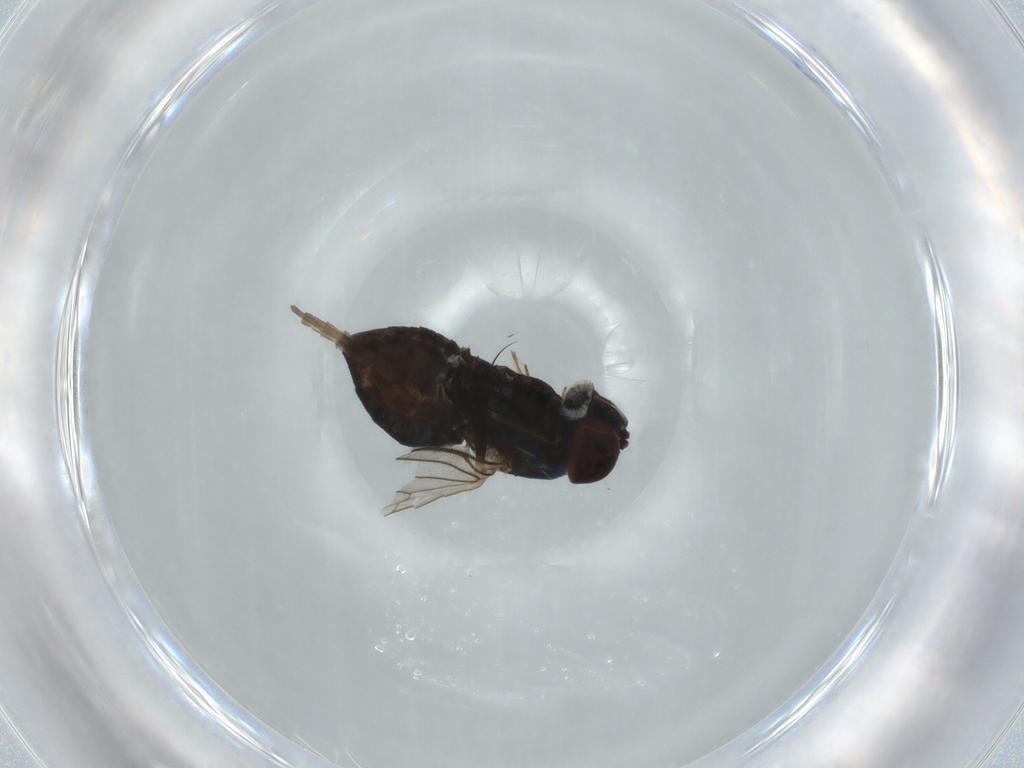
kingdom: Animalia
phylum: Arthropoda
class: Insecta
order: Diptera
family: Dolichopodidae
